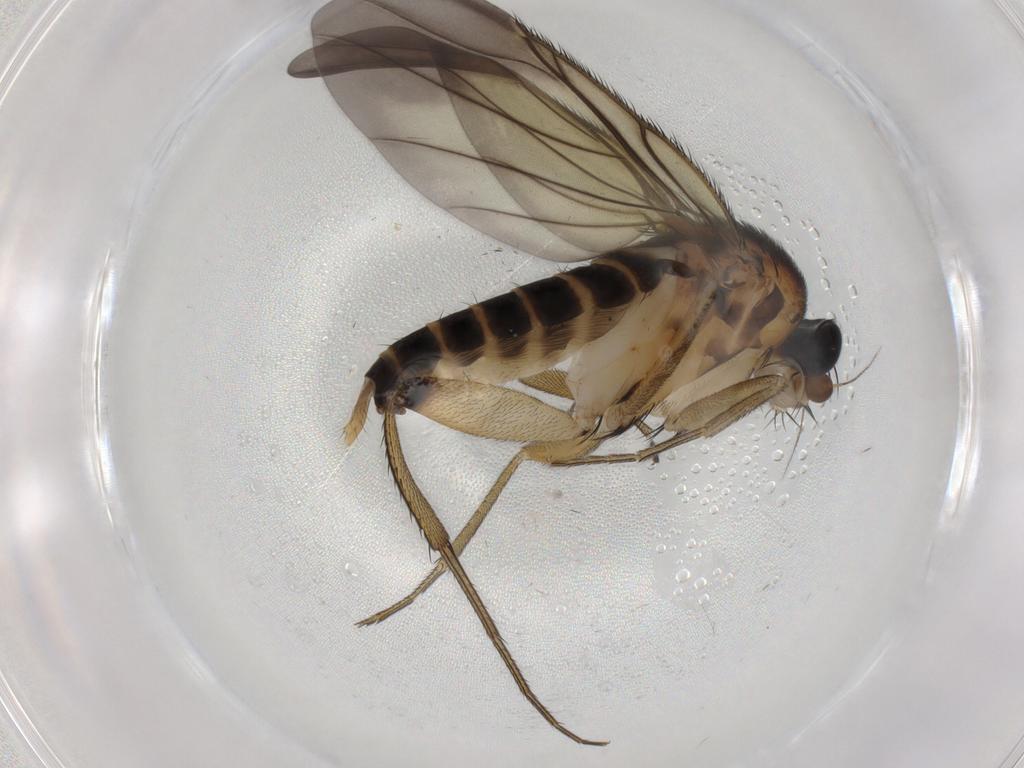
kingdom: Animalia
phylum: Arthropoda
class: Insecta
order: Diptera
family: Phoridae
